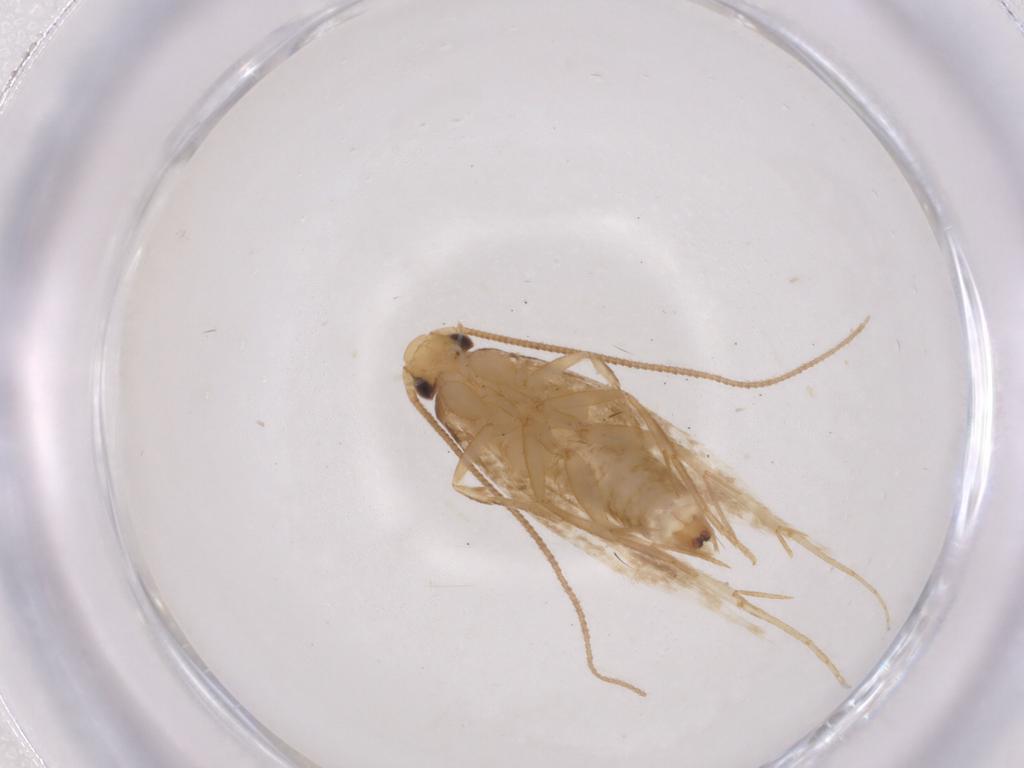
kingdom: Animalia
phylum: Arthropoda
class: Insecta
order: Lepidoptera
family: Tineidae
